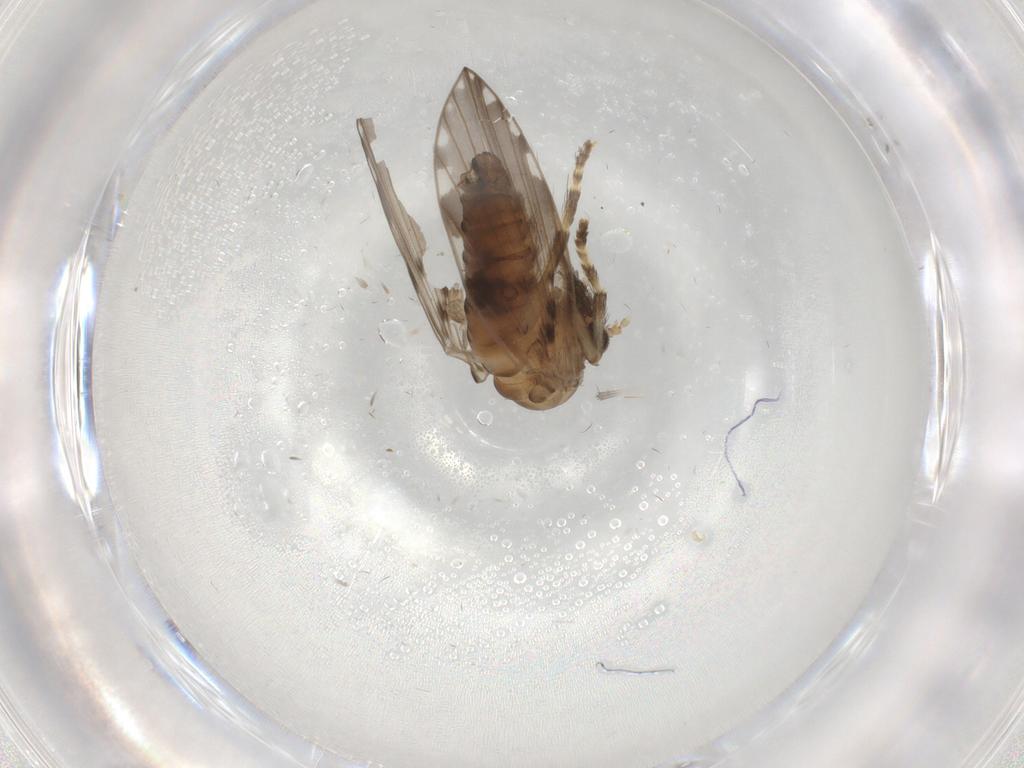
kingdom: Animalia
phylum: Arthropoda
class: Insecta
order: Diptera
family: Psychodidae
